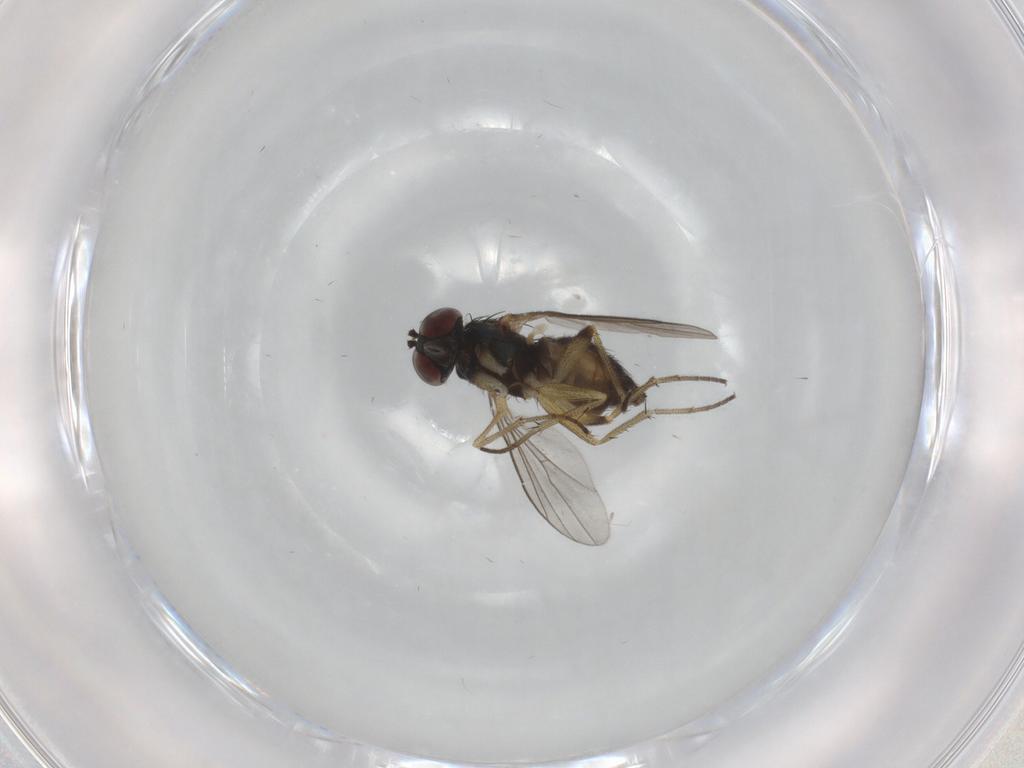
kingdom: Animalia
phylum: Arthropoda
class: Insecta
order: Diptera
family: Dolichopodidae
